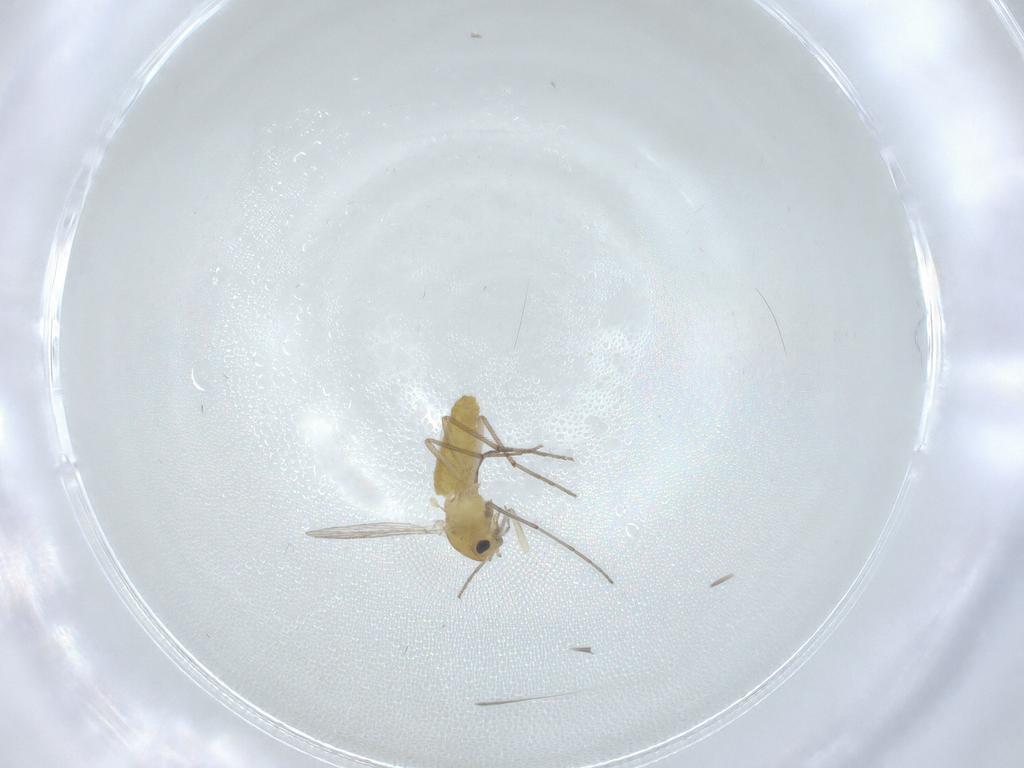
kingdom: Animalia
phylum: Arthropoda
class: Insecta
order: Diptera
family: Chironomidae
